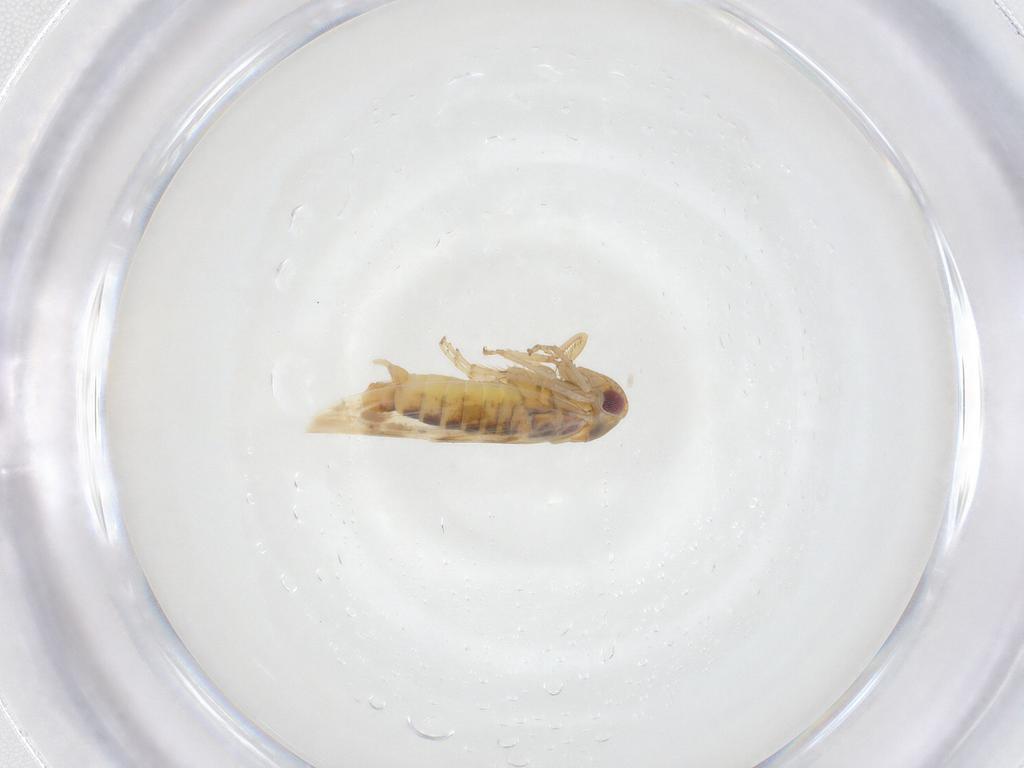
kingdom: Animalia
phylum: Arthropoda
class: Insecta
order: Hemiptera
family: Cicadellidae
